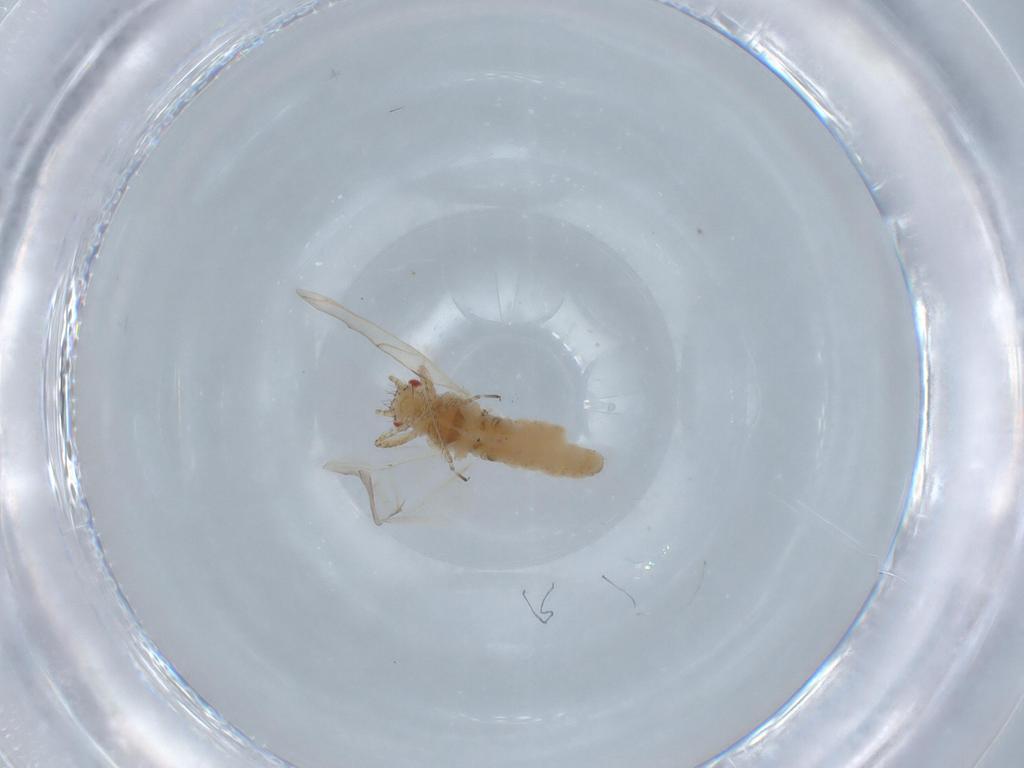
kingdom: Animalia
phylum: Arthropoda
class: Insecta
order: Hemiptera
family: Aphididae
